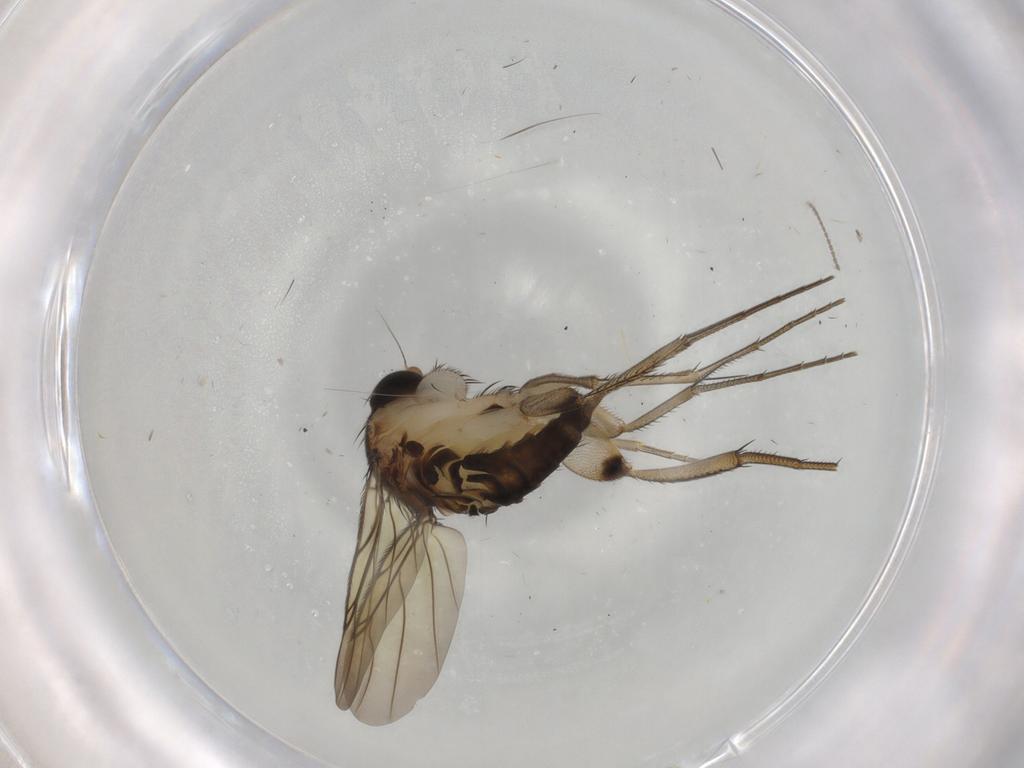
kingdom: Animalia
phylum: Arthropoda
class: Insecta
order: Diptera
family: Phoridae
